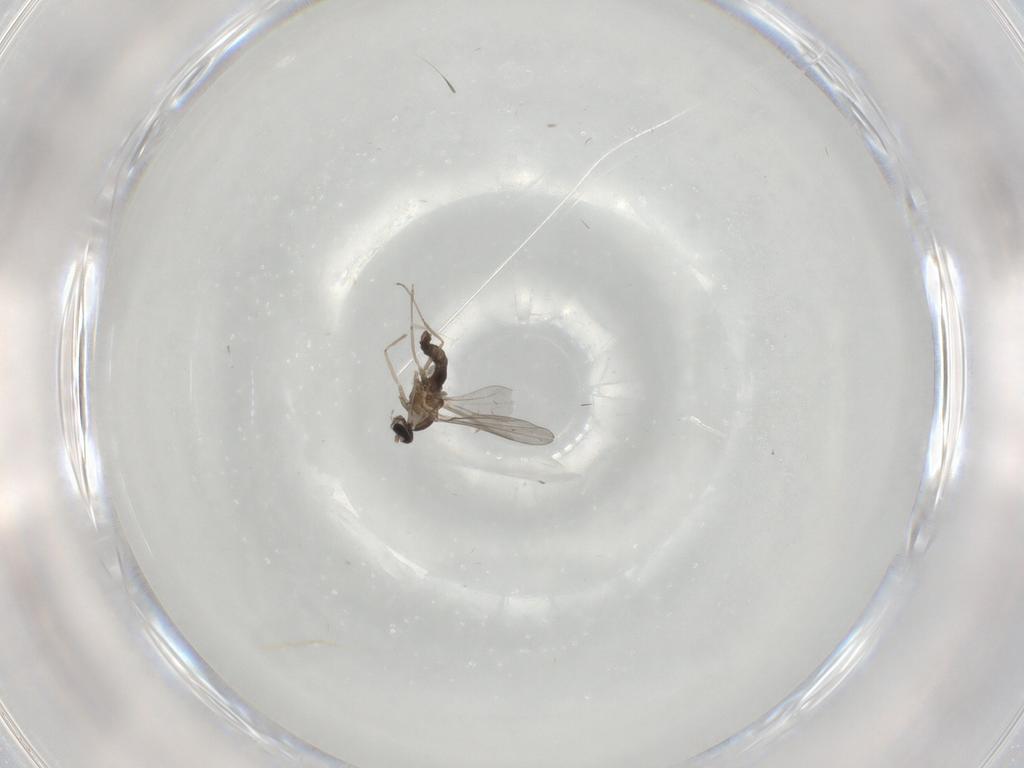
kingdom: Animalia
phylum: Arthropoda
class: Insecta
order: Diptera
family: Cecidomyiidae
